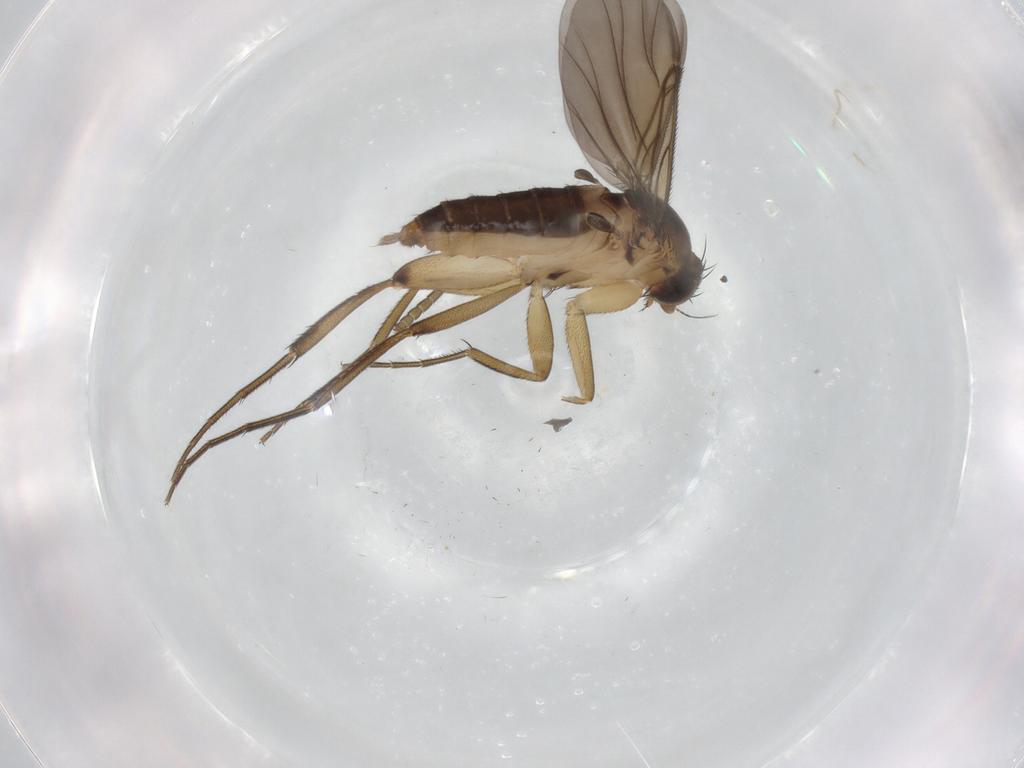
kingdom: Animalia
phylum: Arthropoda
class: Insecta
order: Diptera
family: Phoridae
